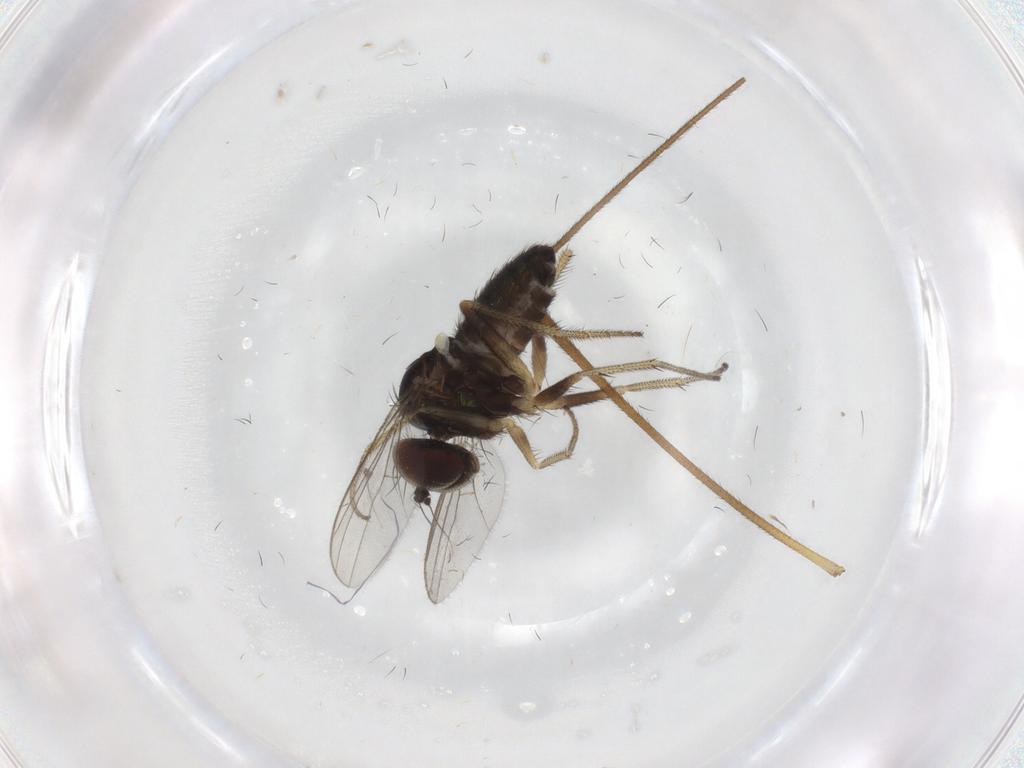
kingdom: Animalia
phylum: Arthropoda
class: Insecta
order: Diptera
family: Limoniidae
